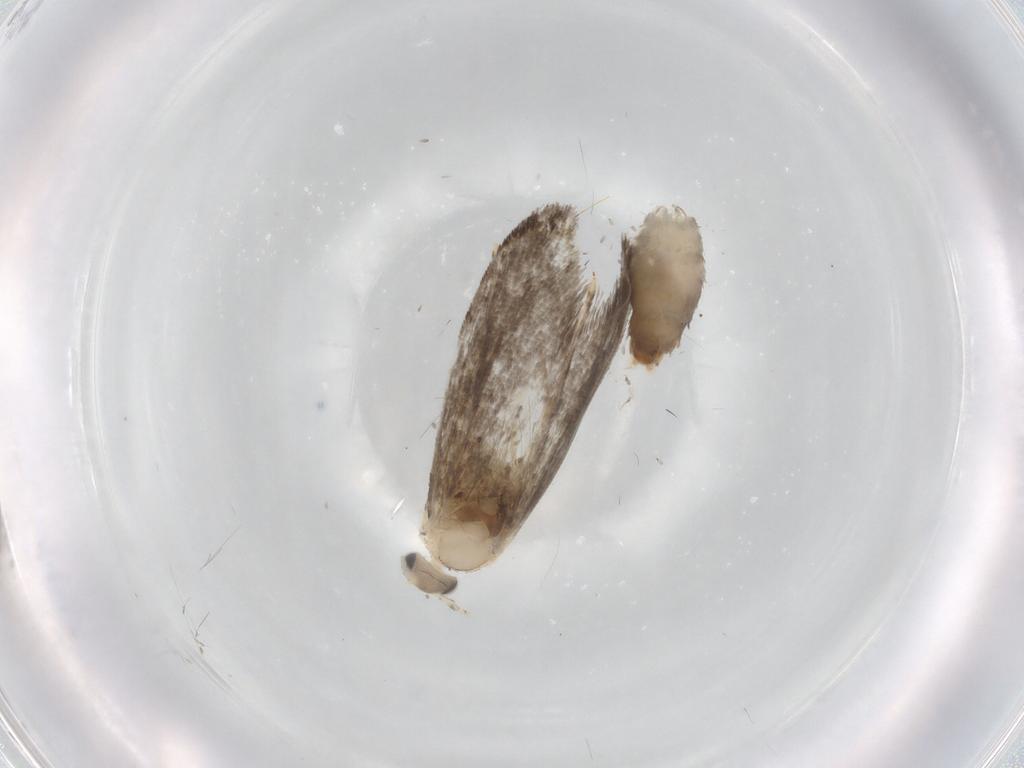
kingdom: Animalia
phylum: Arthropoda
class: Insecta
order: Lepidoptera
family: Tineidae
